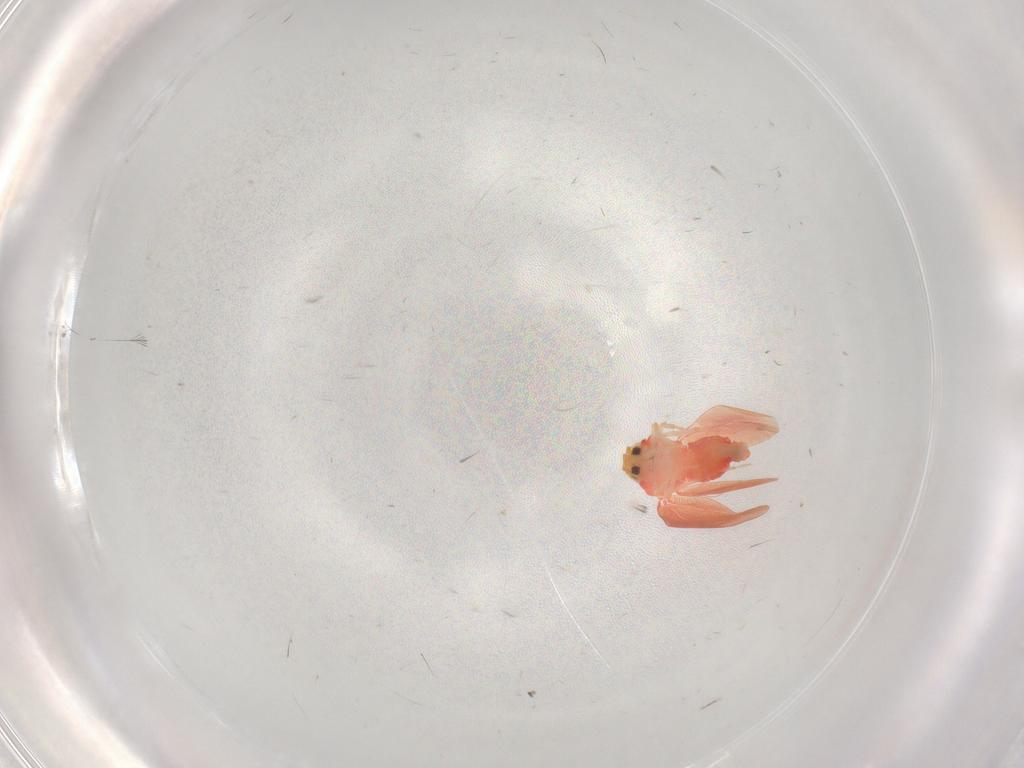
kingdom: Animalia
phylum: Arthropoda
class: Insecta
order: Hemiptera
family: Aleyrodidae
